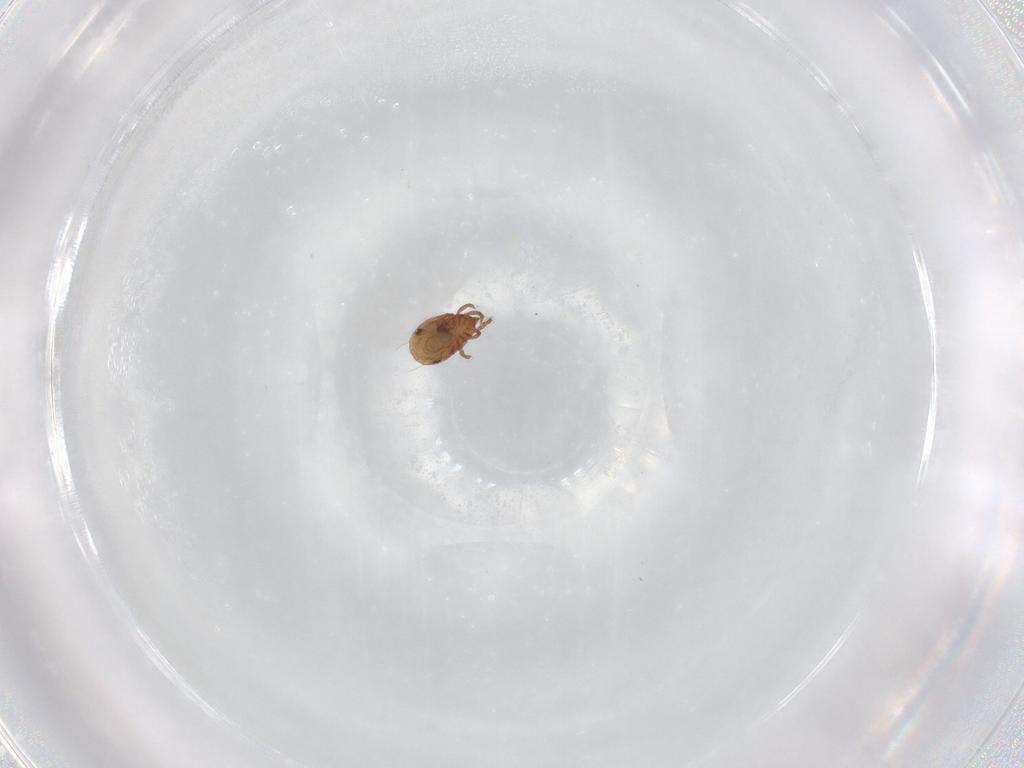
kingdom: Animalia
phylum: Arthropoda
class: Arachnida
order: Sarcoptiformes
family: Phenopelopidae
